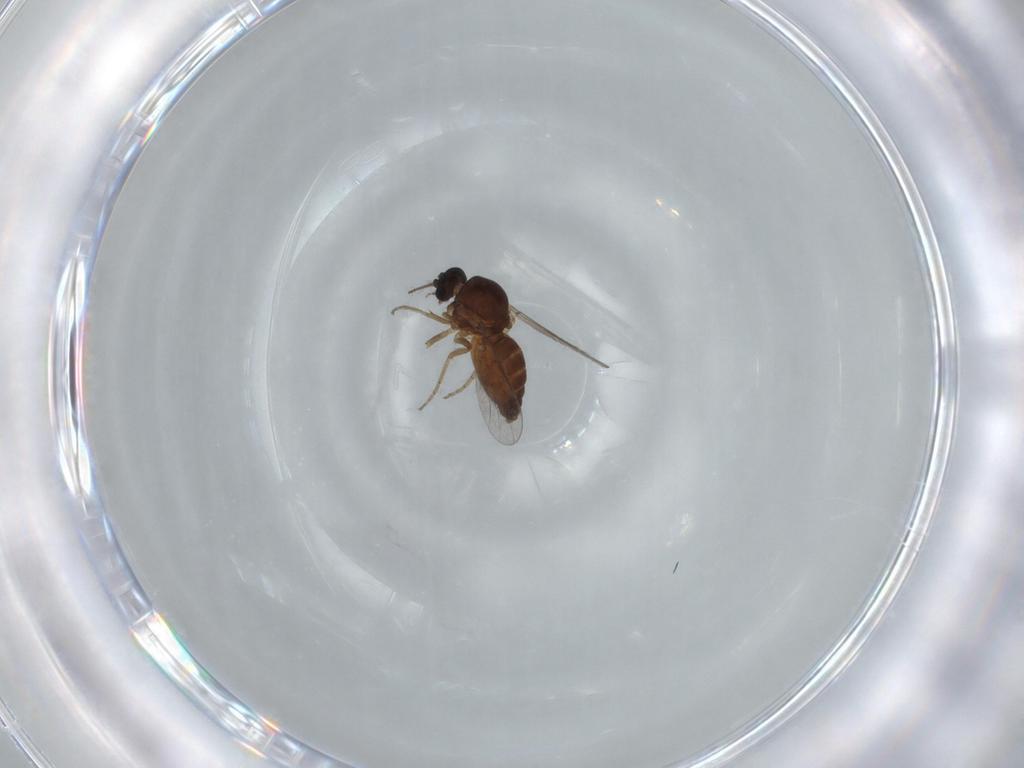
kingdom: Animalia
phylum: Arthropoda
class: Insecta
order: Diptera
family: Ceratopogonidae
